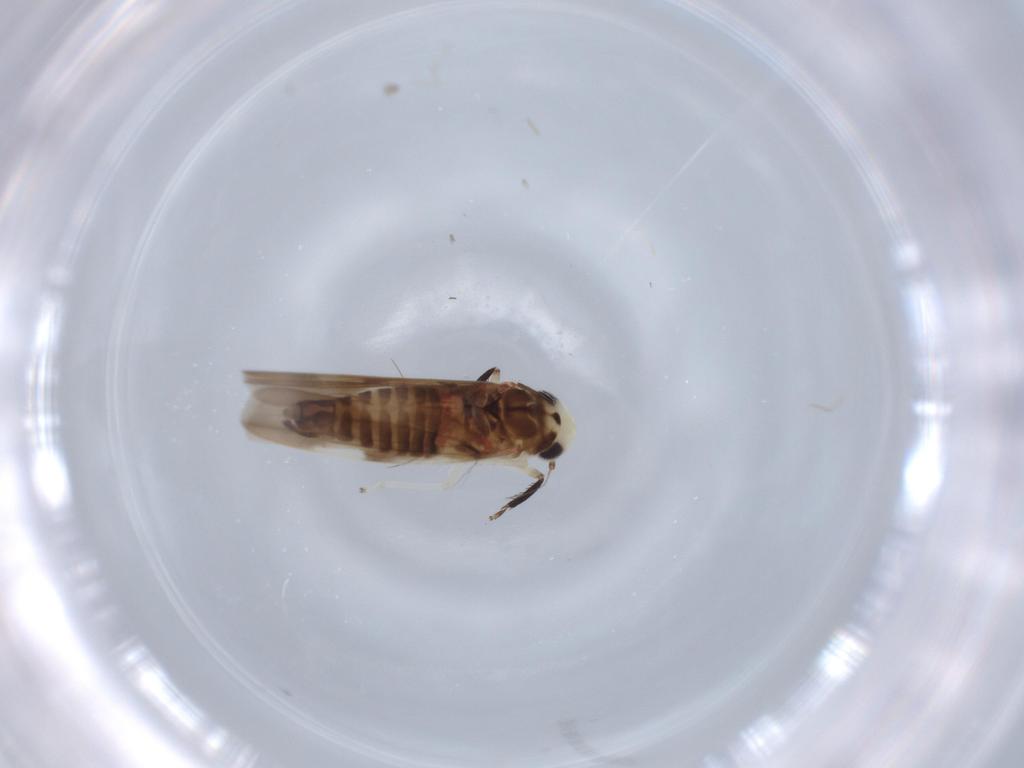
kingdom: Animalia
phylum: Arthropoda
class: Insecta
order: Hemiptera
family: Cicadellidae
